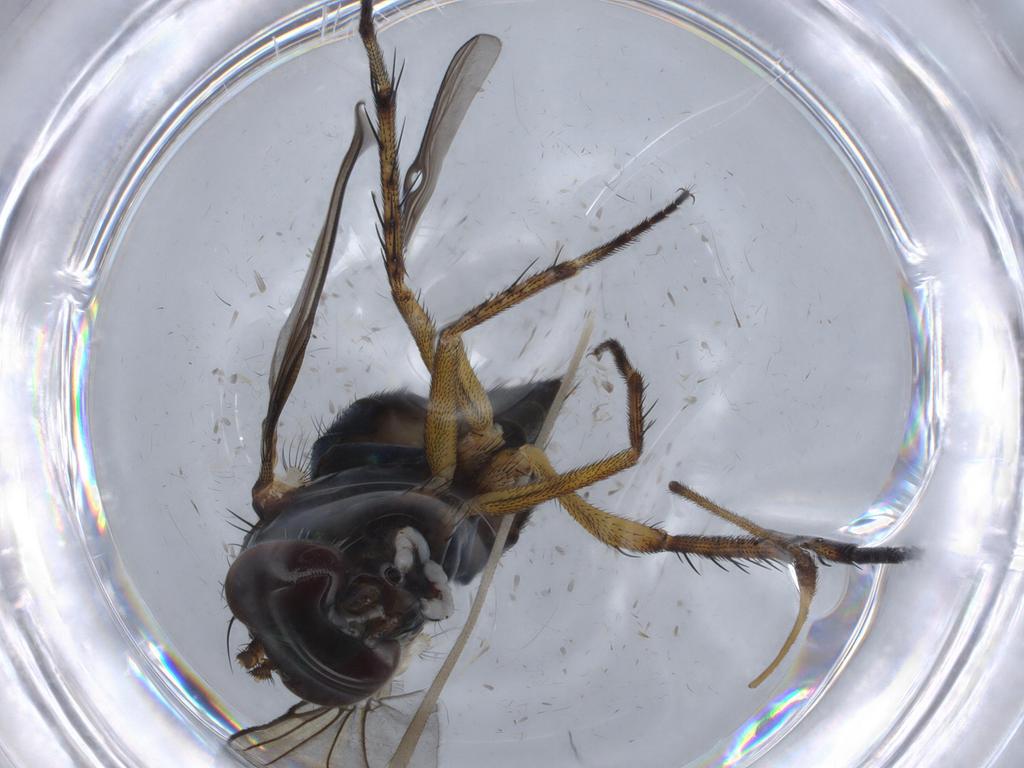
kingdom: Animalia
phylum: Arthropoda
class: Insecta
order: Diptera
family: Dolichopodidae
